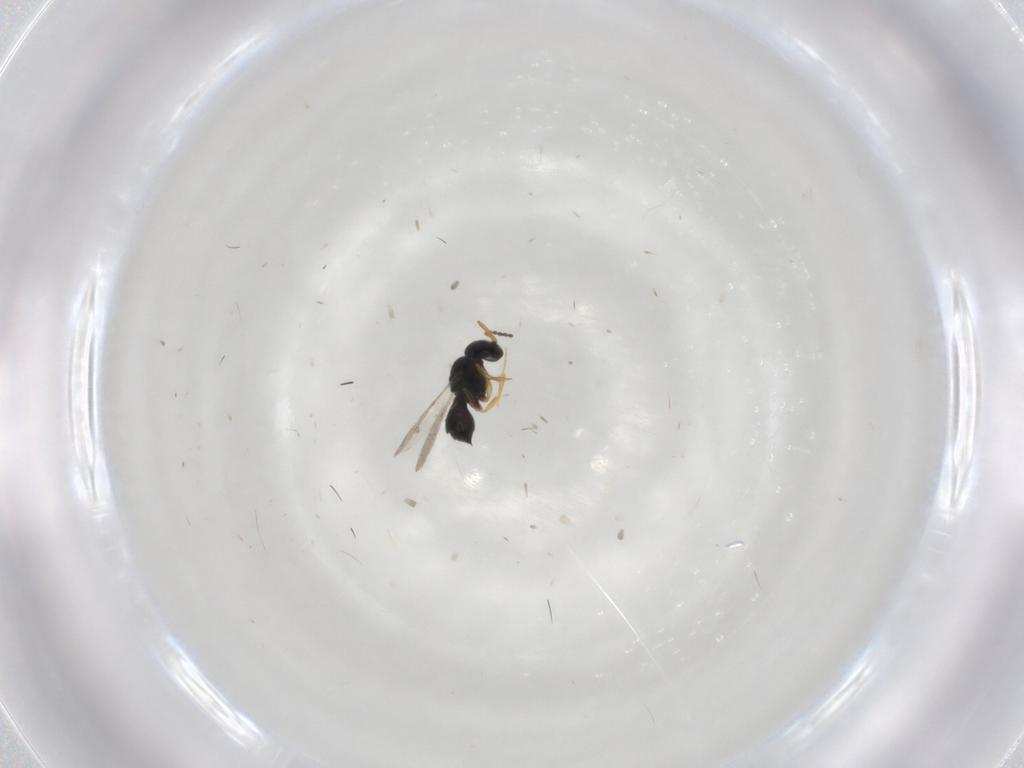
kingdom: Animalia
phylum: Arthropoda
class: Insecta
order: Hymenoptera
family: Scelionidae
